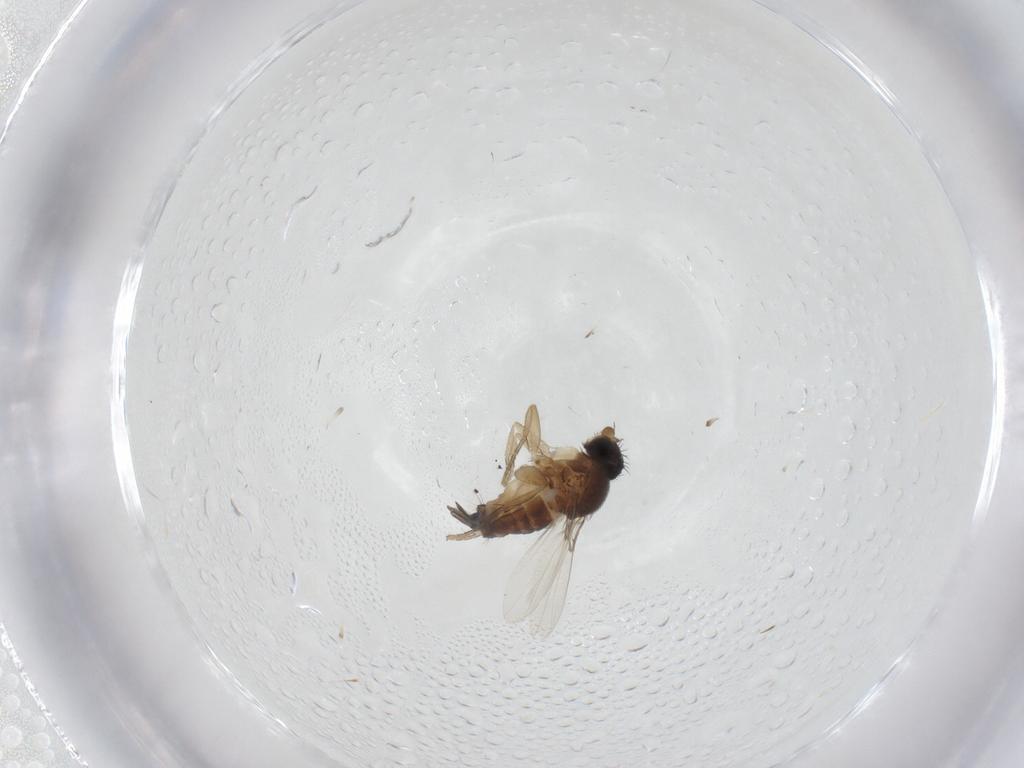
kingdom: Animalia
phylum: Arthropoda
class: Insecta
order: Diptera
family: Phoridae
